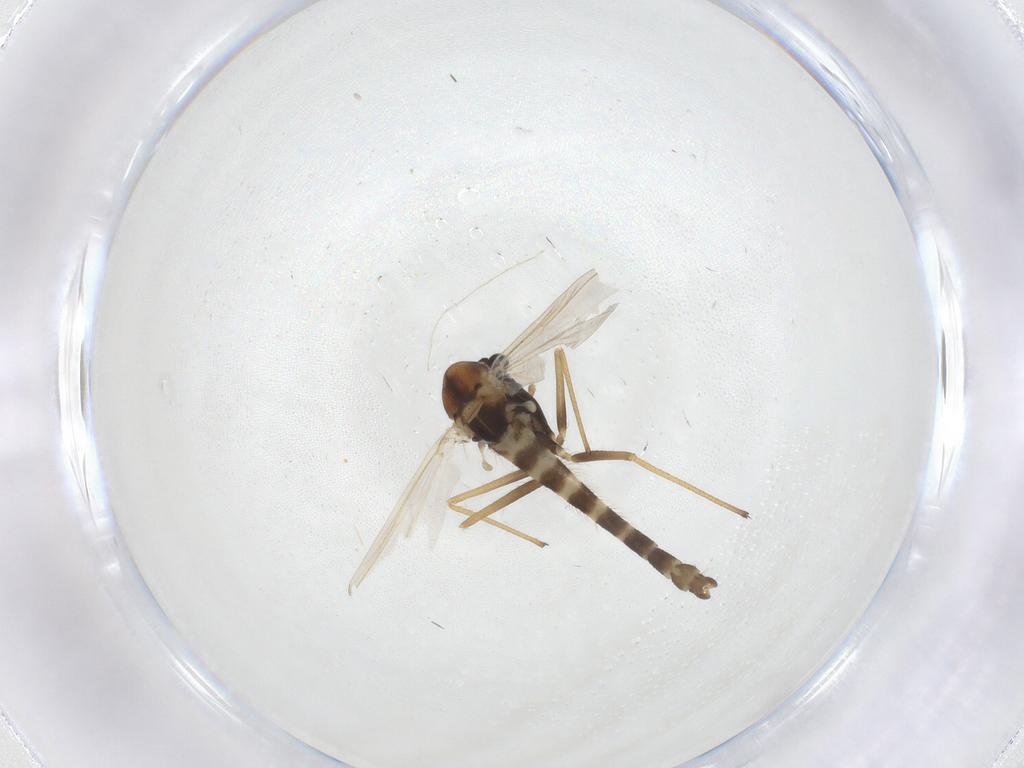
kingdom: Animalia
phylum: Arthropoda
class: Insecta
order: Diptera
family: Chironomidae
